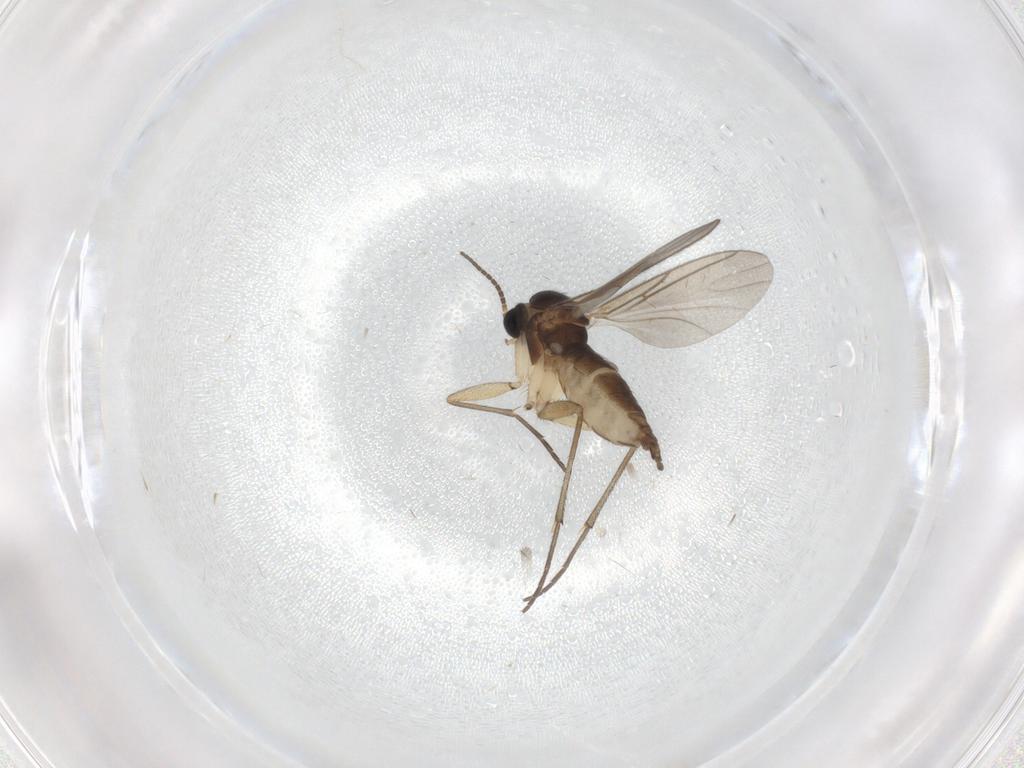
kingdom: Animalia
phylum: Arthropoda
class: Insecta
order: Diptera
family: Sciaridae
